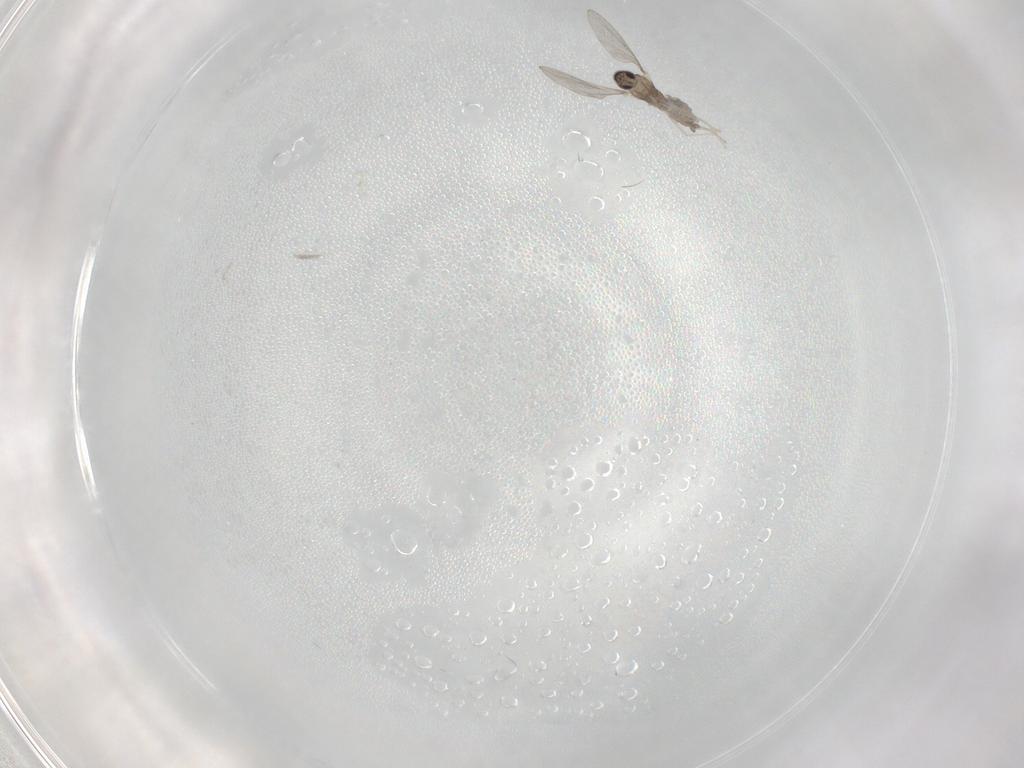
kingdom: Animalia
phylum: Arthropoda
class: Insecta
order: Diptera
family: Cecidomyiidae
